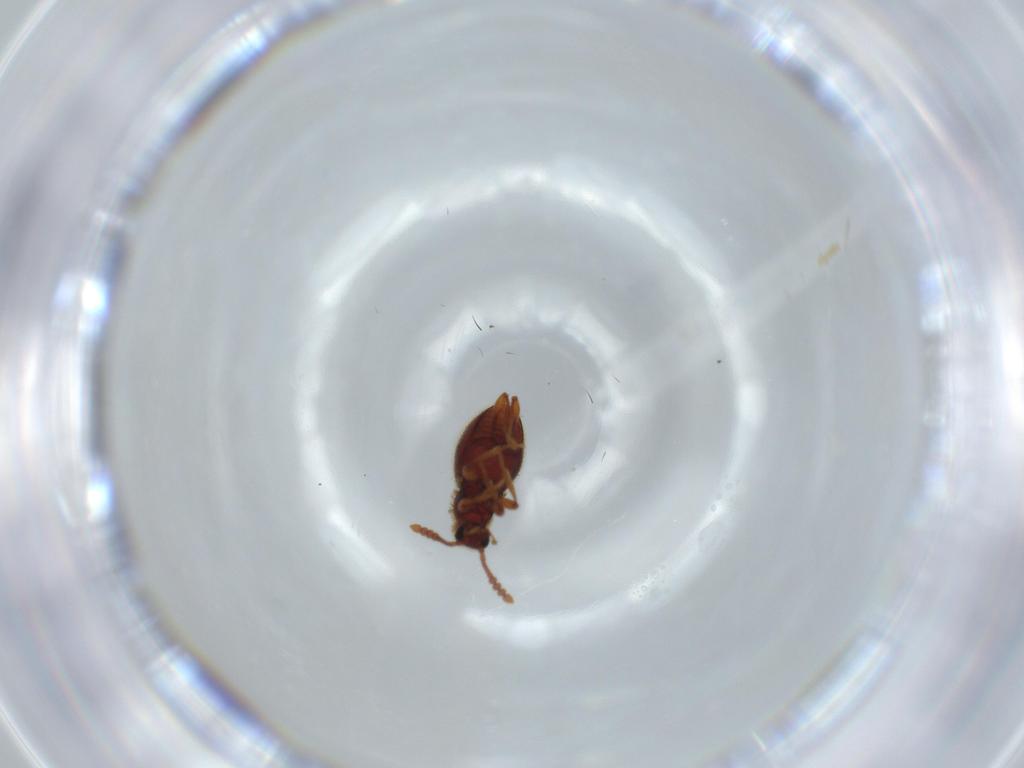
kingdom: Animalia
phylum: Arthropoda
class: Insecta
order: Coleoptera
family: Staphylinidae
